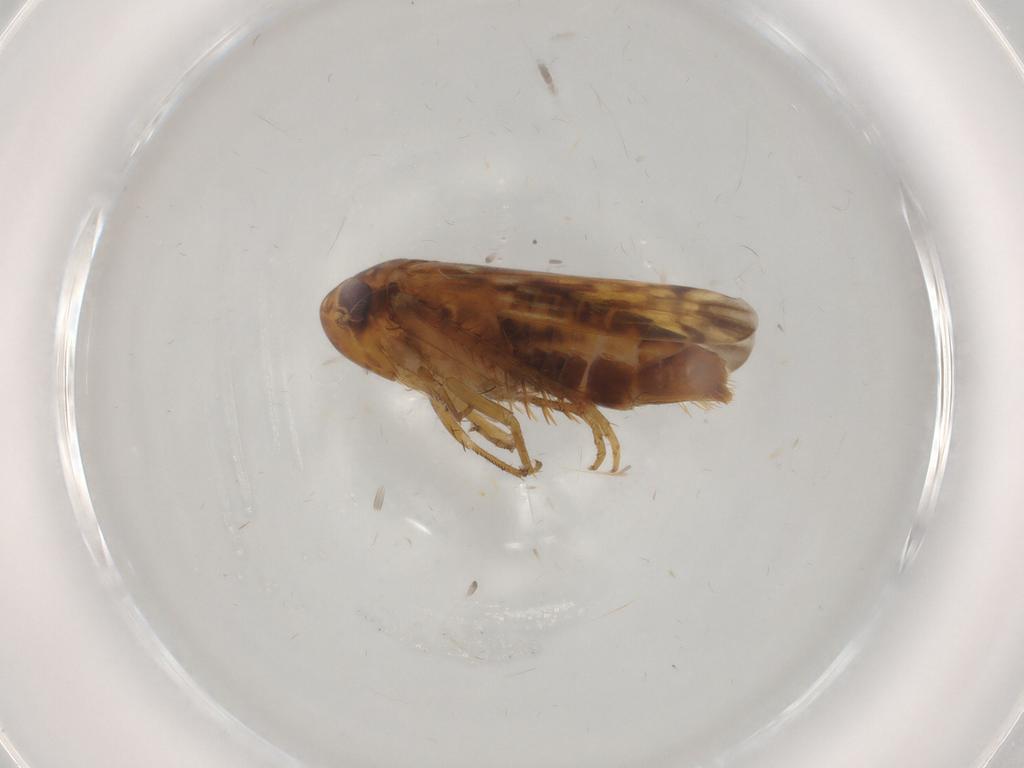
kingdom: Animalia
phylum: Arthropoda
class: Insecta
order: Hemiptera
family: Cicadellidae
